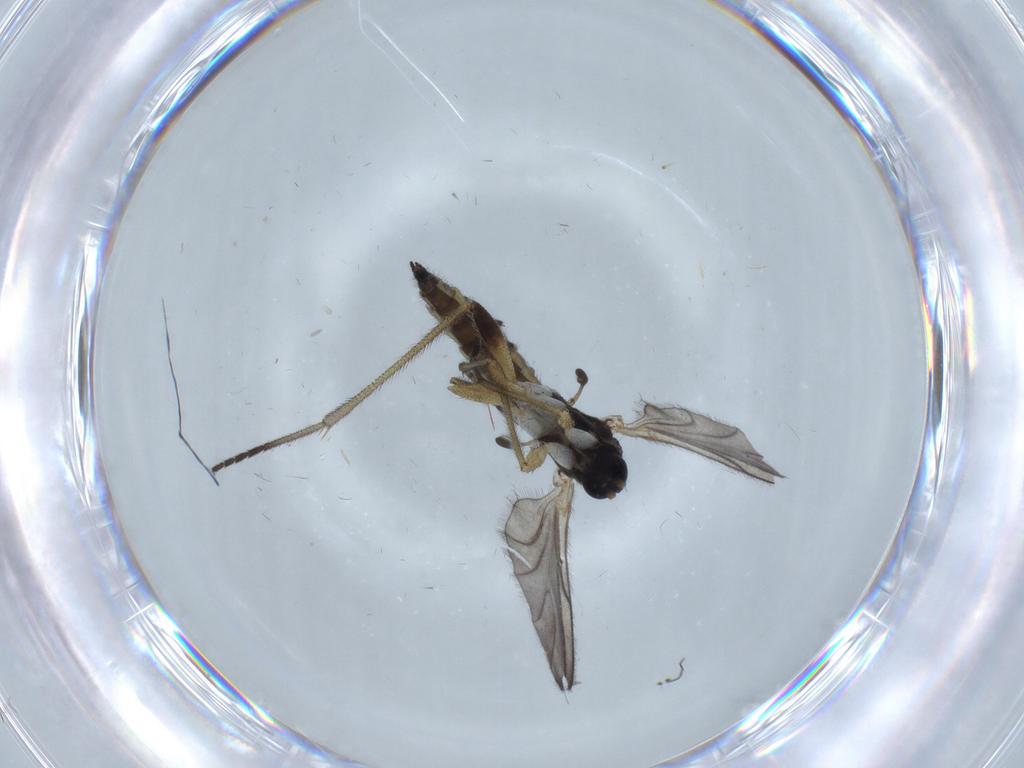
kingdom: Animalia
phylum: Arthropoda
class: Insecta
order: Diptera
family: Sciaridae
